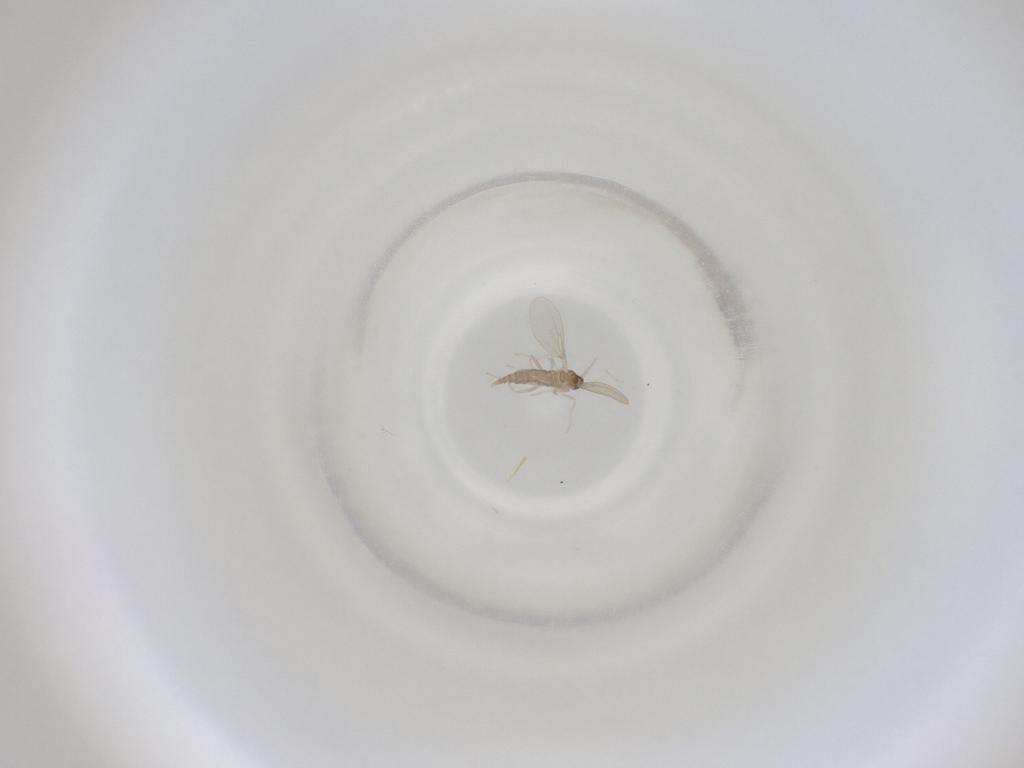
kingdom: Animalia
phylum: Arthropoda
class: Insecta
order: Diptera
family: Cecidomyiidae
